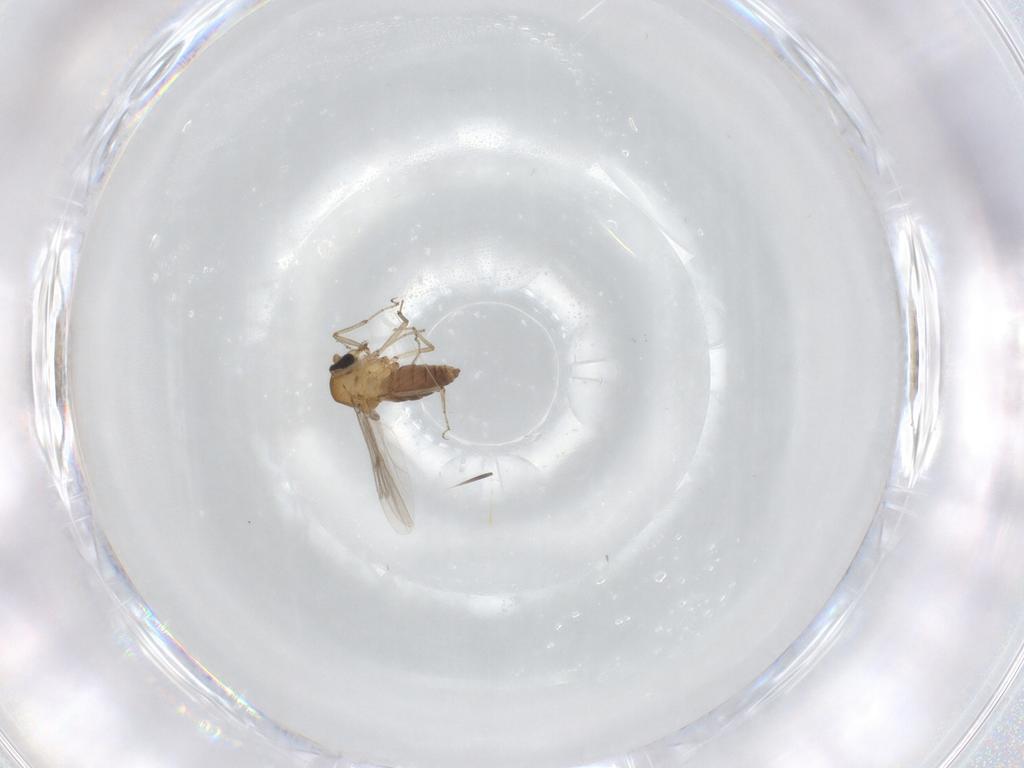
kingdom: Animalia
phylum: Arthropoda
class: Insecta
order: Diptera
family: Ceratopogonidae
